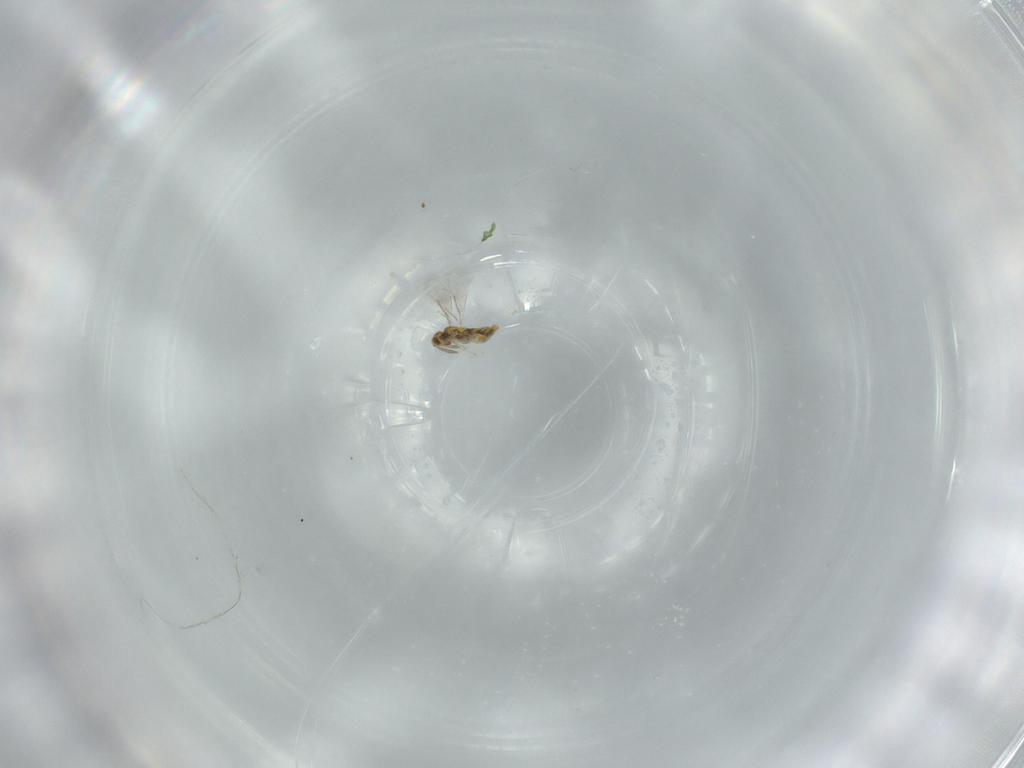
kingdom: Animalia
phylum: Arthropoda
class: Insecta
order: Hymenoptera
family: Aphelinidae
